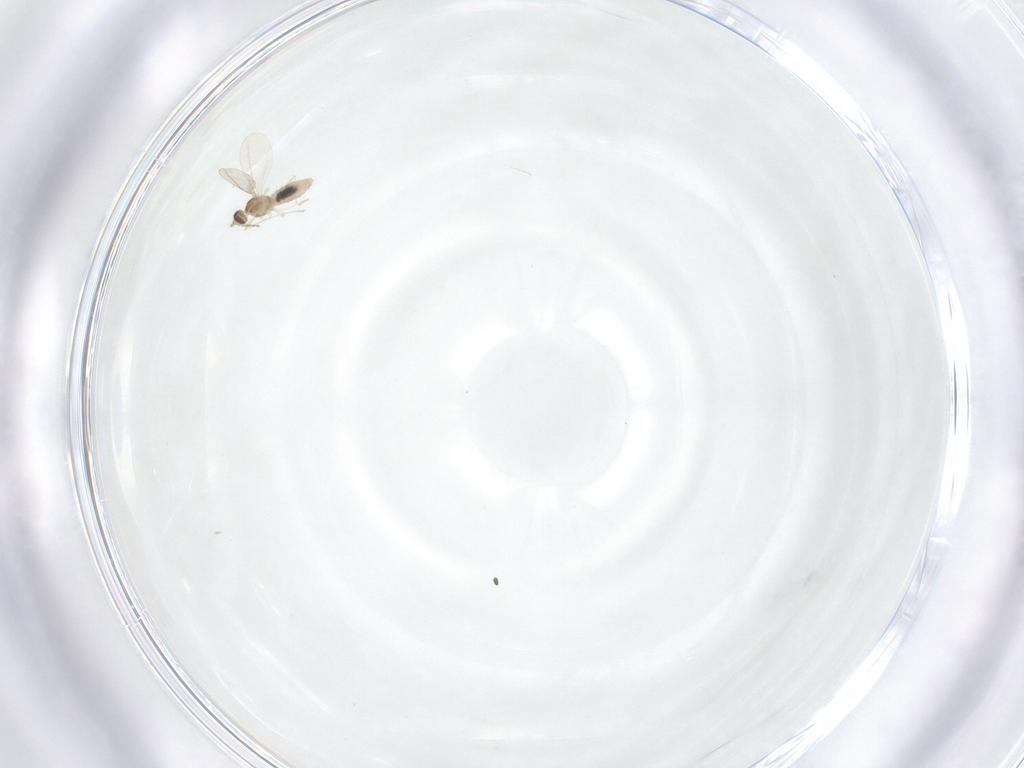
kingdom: Animalia
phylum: Arthropoda
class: Insecta
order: Diptera
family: Cecidomyiidae
